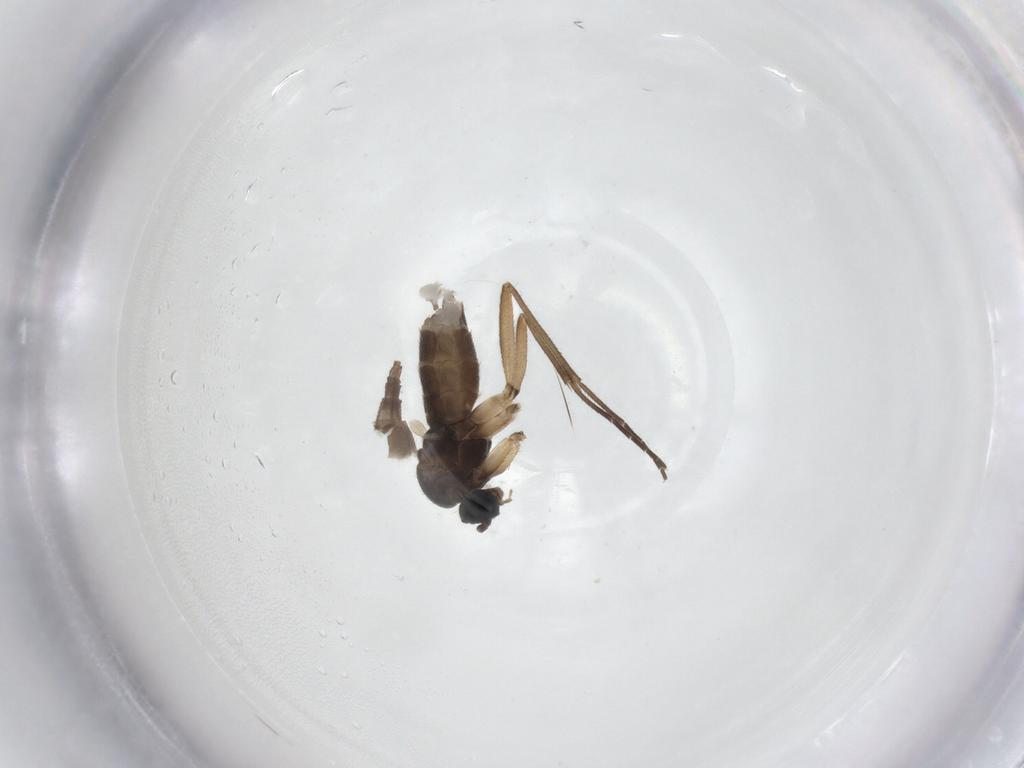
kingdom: Animalia
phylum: Arthropoda
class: Insecta
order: Diptera
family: Sciaridae
